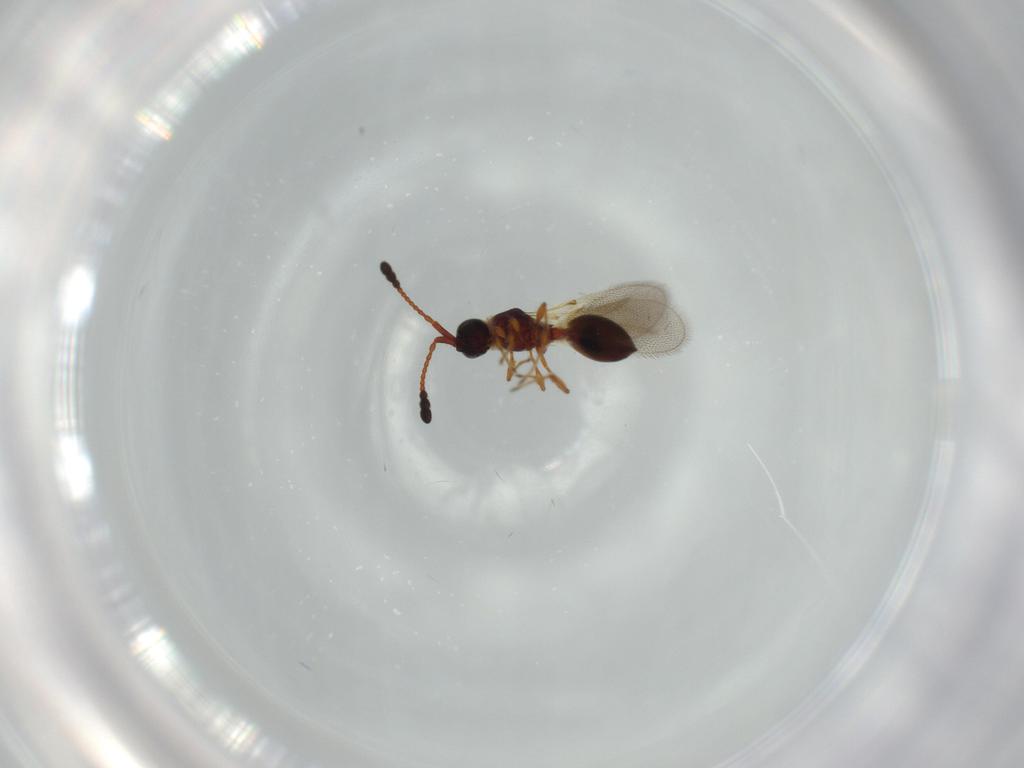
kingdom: Animalia
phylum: Arthropoda
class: Insecta
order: Hymenoptera
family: Diapriidae
